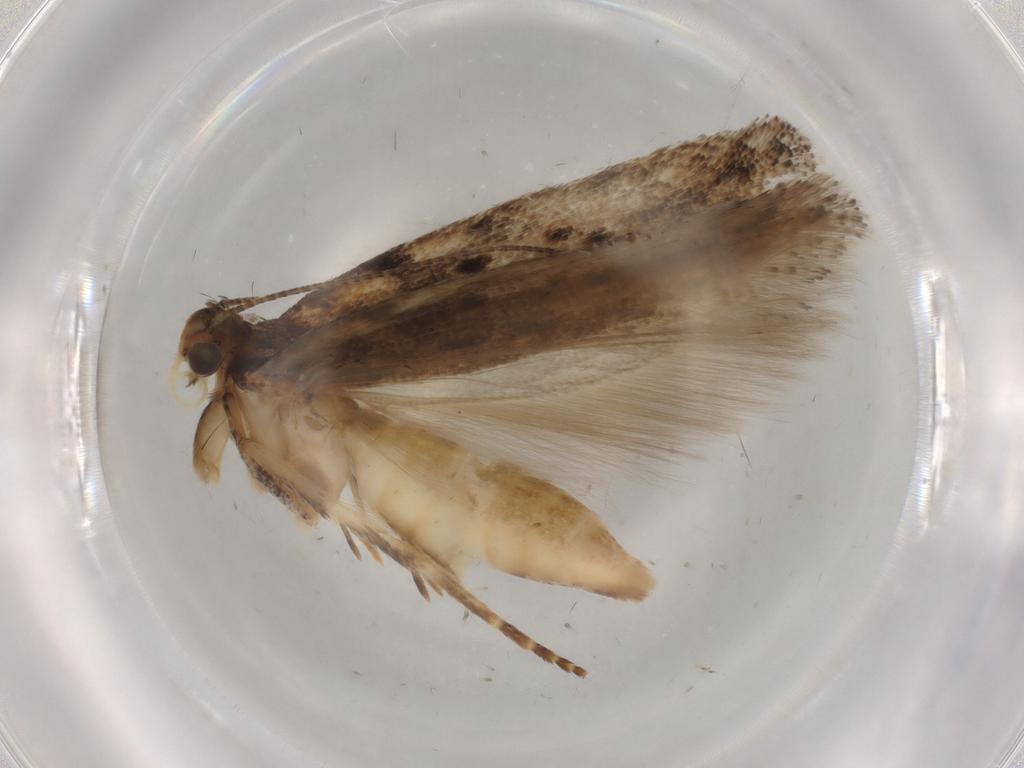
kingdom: Animalia
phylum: Arthropoda
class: Insecta
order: Lepidoptera
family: Gelechiidae
